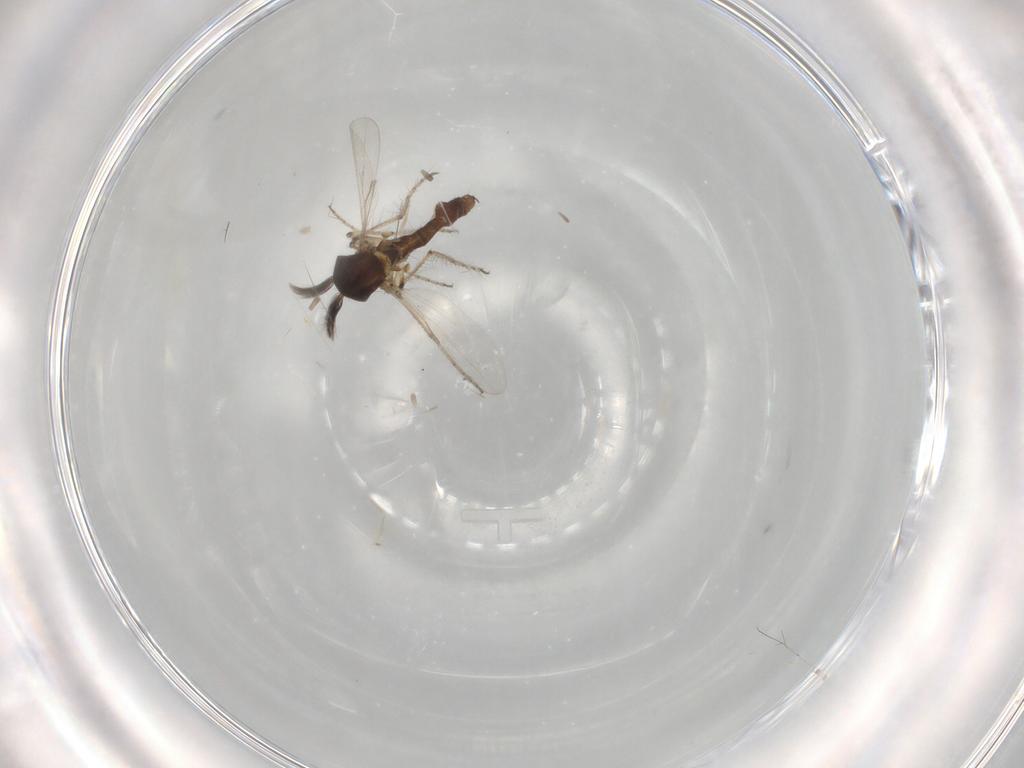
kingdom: Animalia
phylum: Arthropoda
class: Insecta
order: Diptera
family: Ceratopogonidae
